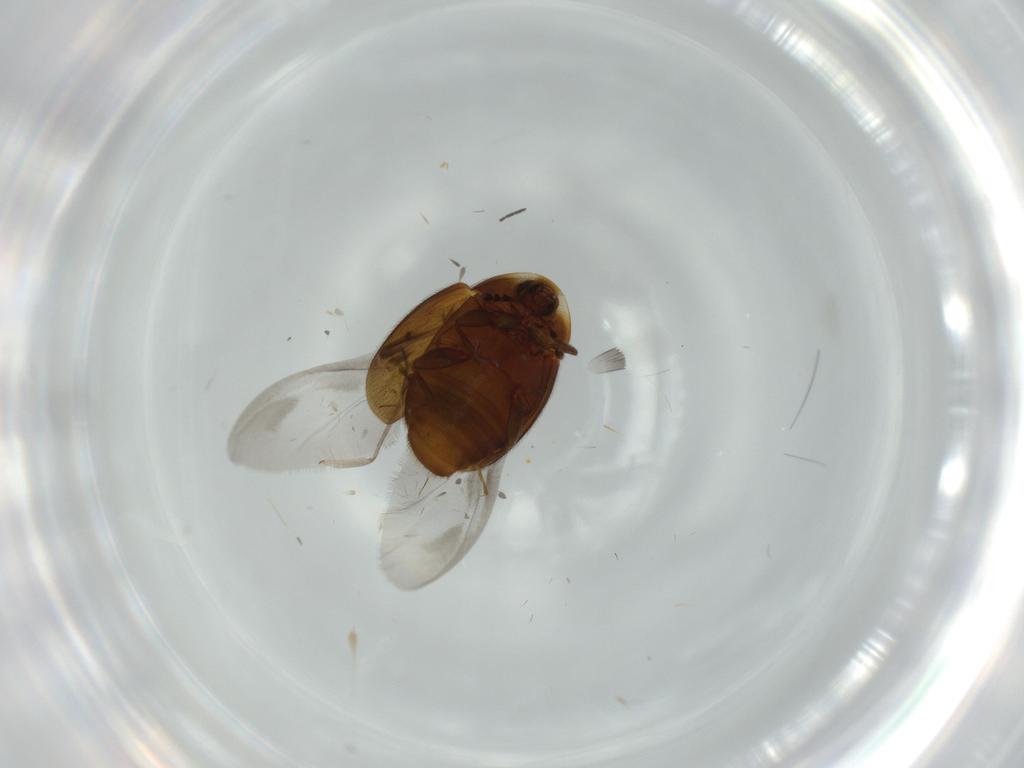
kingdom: Animalia
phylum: Arthropoda
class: Insecta
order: Coleoptera
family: Corylophidae
